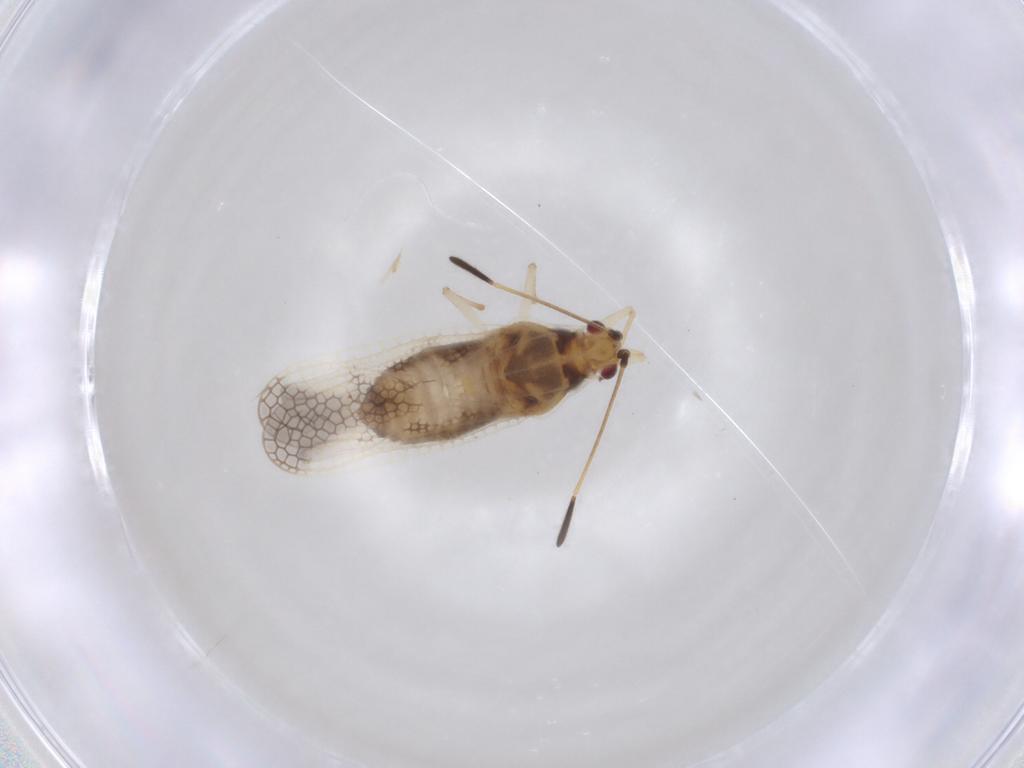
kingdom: Animalia
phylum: Arthropoda
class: Insecta
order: Hemiptera
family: Tingidae
